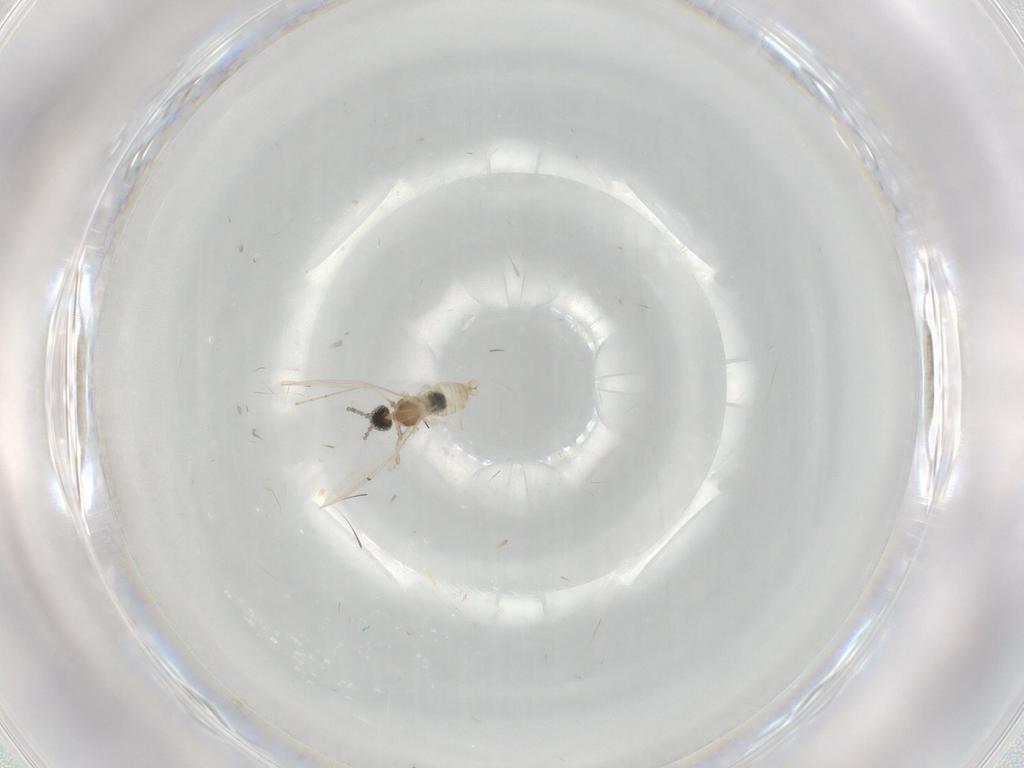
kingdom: Animalia
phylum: Arthropoda
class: Insecta
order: Diptera
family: Cecidomyiidae
